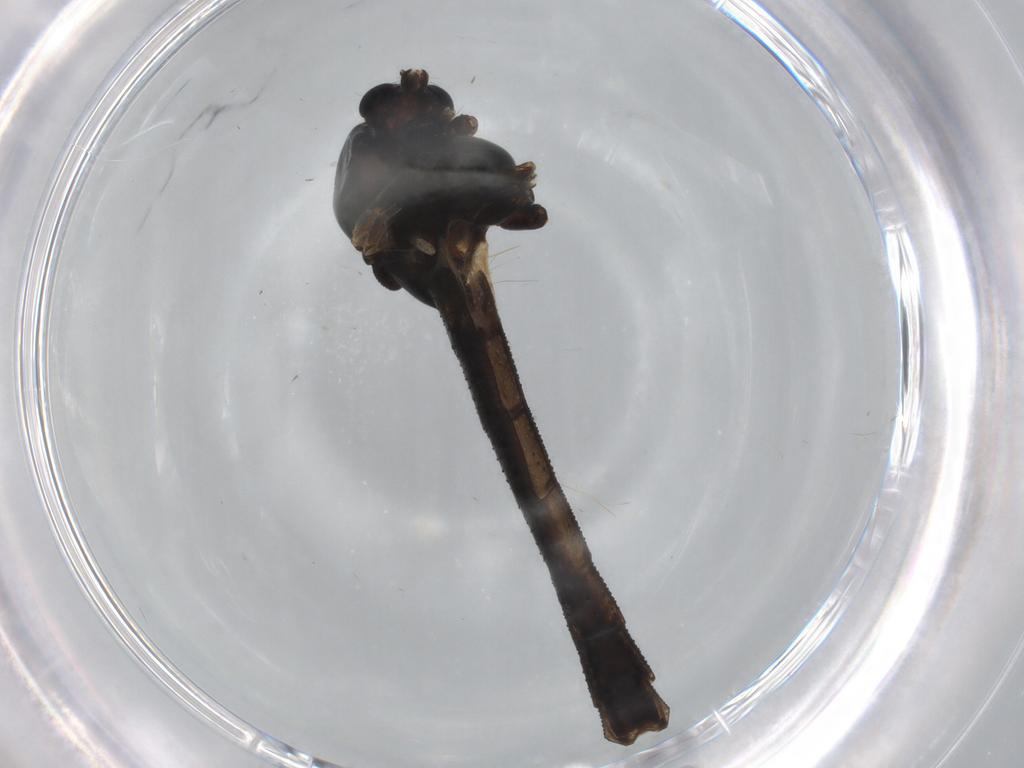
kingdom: Animalia
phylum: Arthropoda
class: Insecta
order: Diptera
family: Chironomidae
